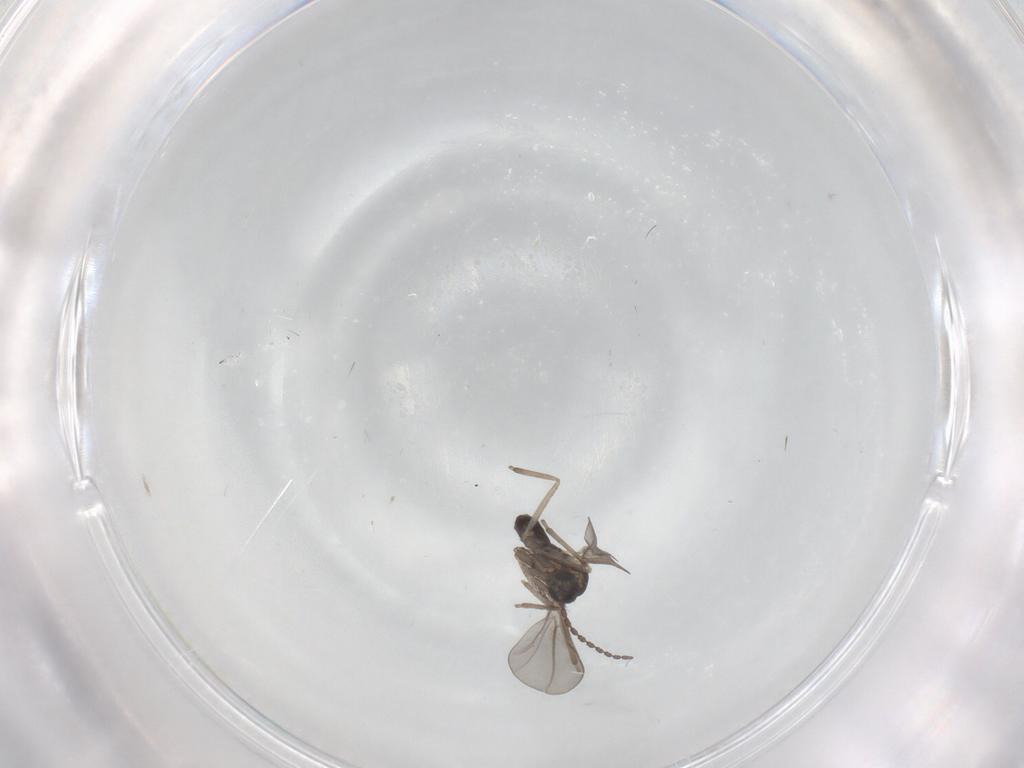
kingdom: Animalia
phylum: Arthropoda
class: Insecta
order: Diptera
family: Cecidomyiidae
